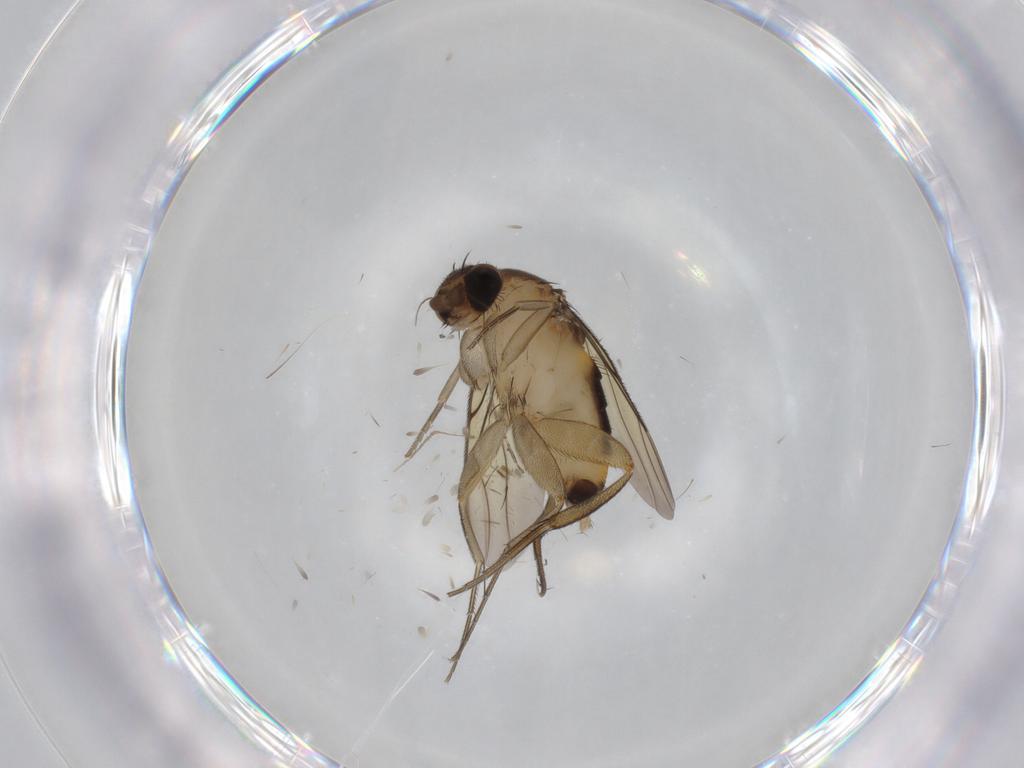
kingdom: Animalia
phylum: Arthropoda
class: Insecta
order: Diptera
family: Cecidomyiidae
